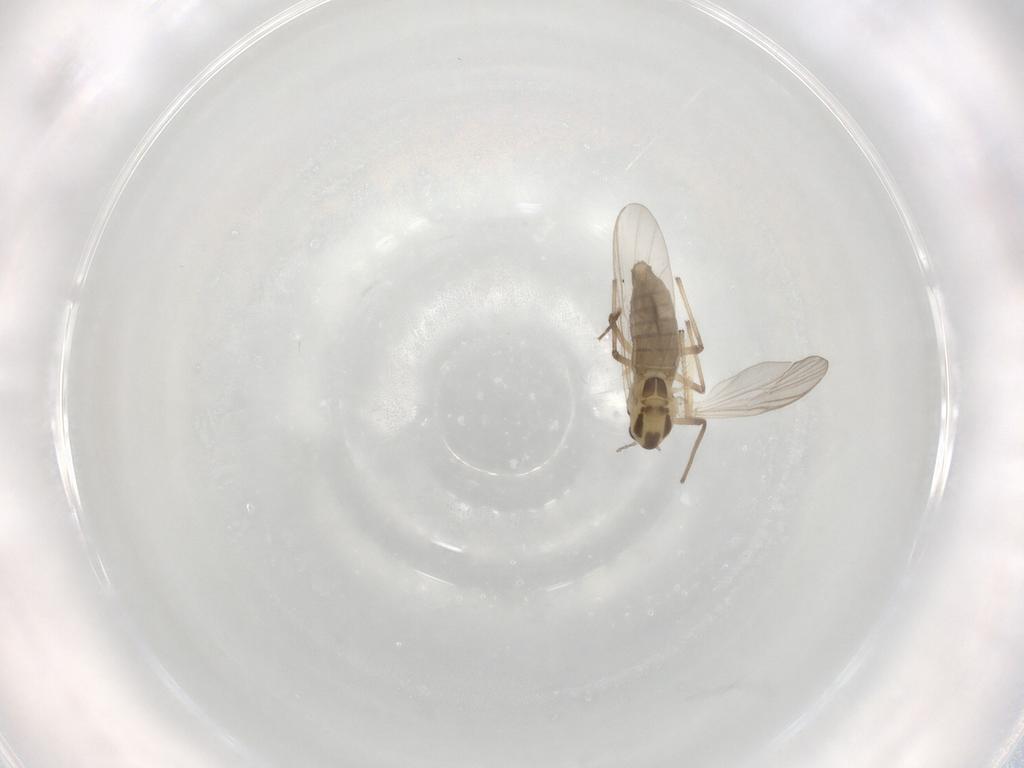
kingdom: Animalia
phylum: Arthropoda
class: Insecta
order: Diptera
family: Chironomidae
